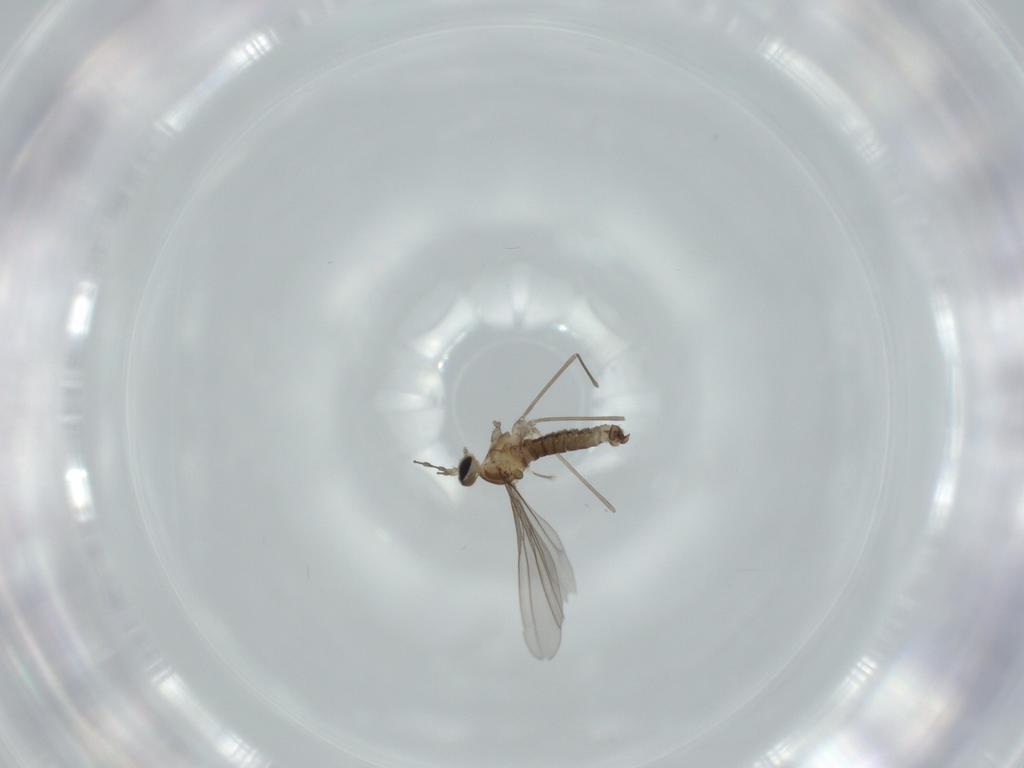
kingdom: Animalia
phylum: Arthropoda
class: Insecta
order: Diptera
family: Cecidomyiidae
